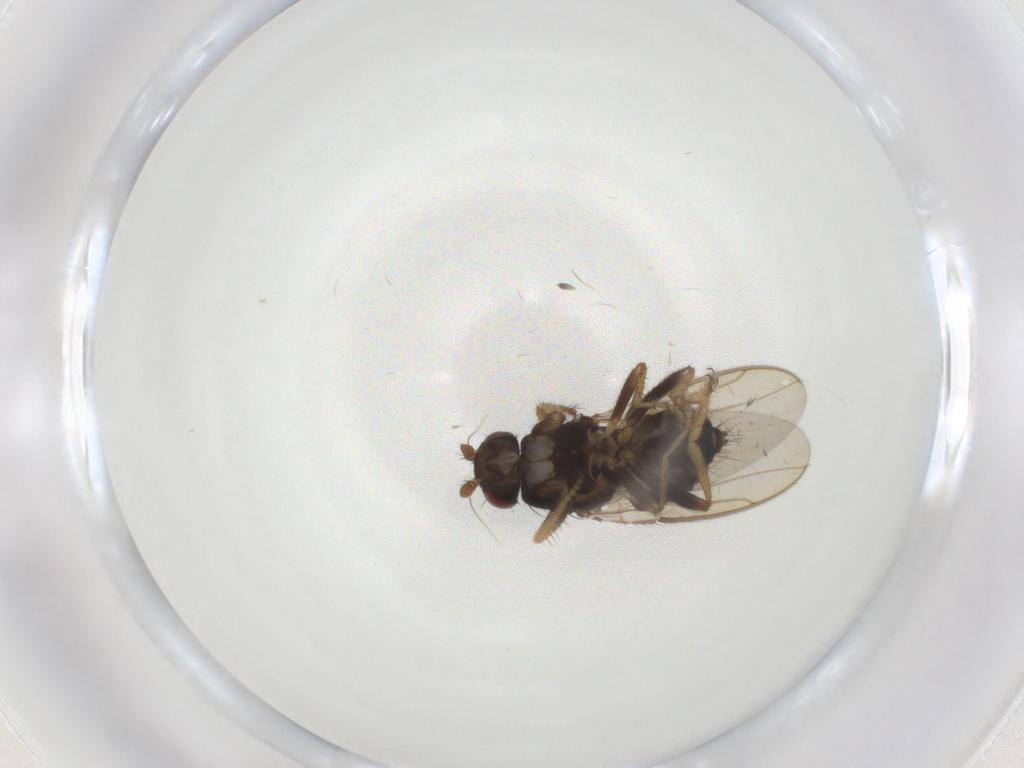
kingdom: Animalia
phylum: Arthropoda
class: Insecta
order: Diptera
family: Sphaeroceridae
